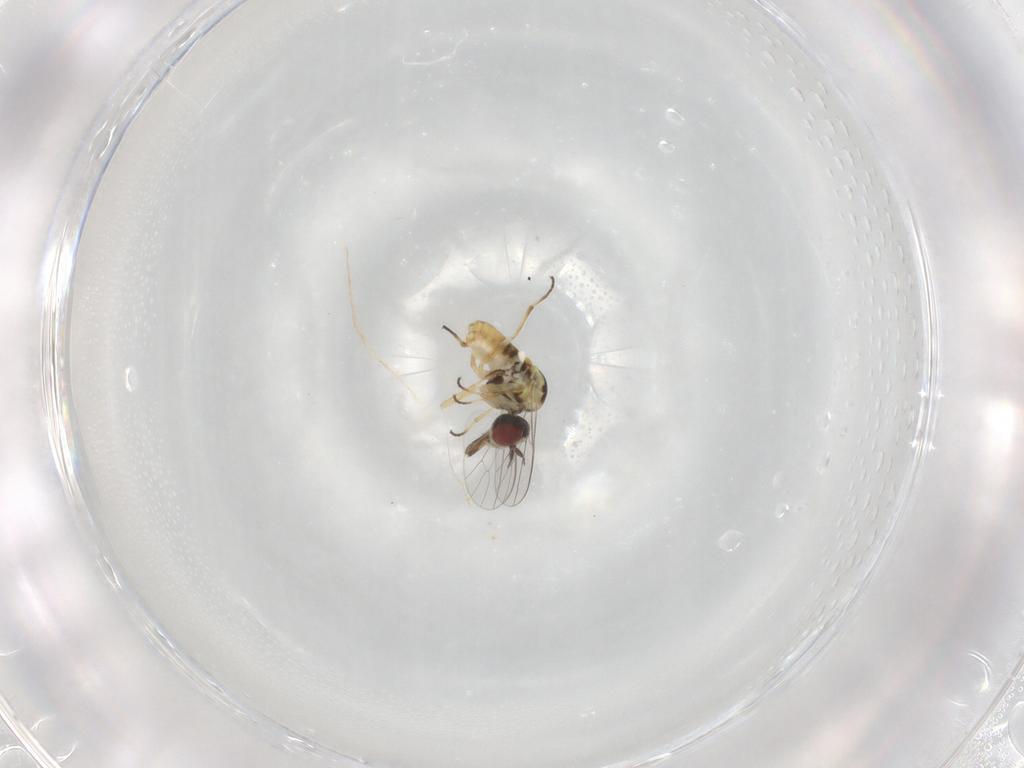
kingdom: Animalia
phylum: Arthropoda
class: Insecta
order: Diptera
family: Mythicomyiidae
